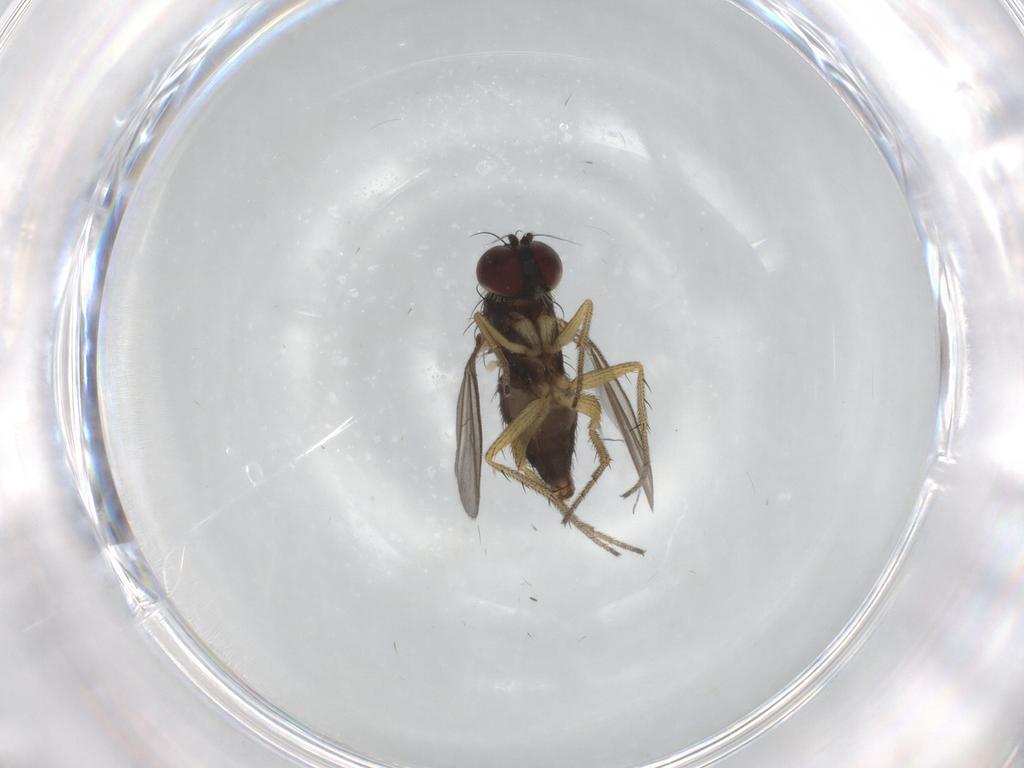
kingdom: Animalia
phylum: Arthropoda
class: Insecta
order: Diptera
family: Dolichopodidae
